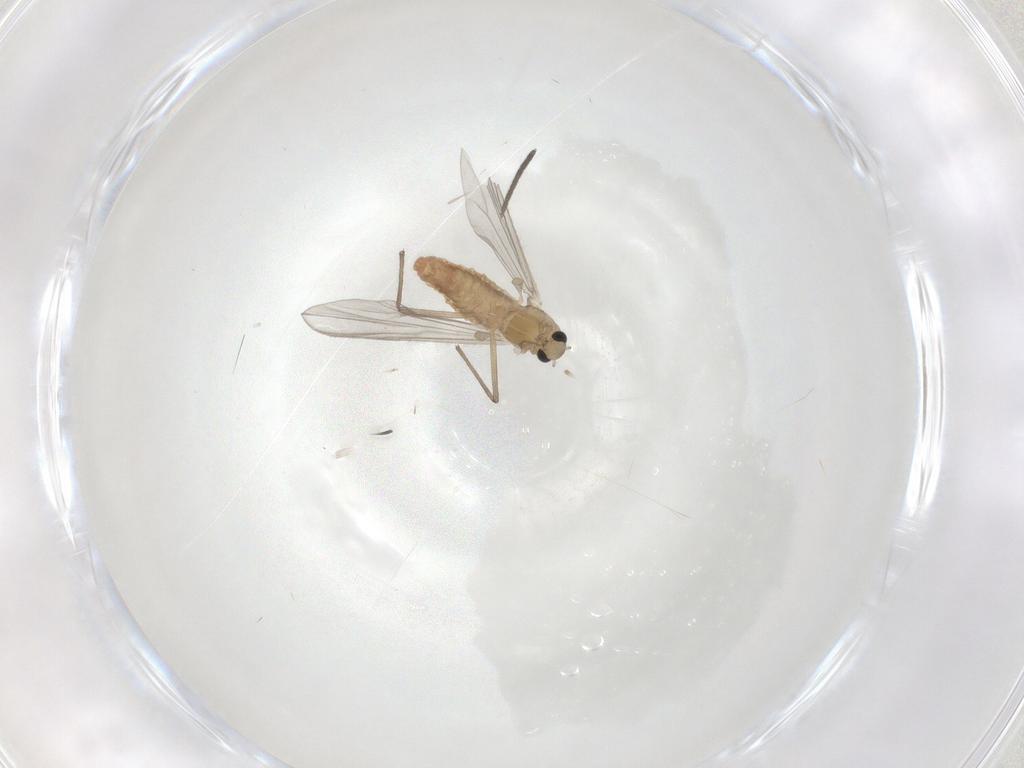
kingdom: Animalia
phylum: Arthropoda
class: Insecta
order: Diptera
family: Chironomidae
